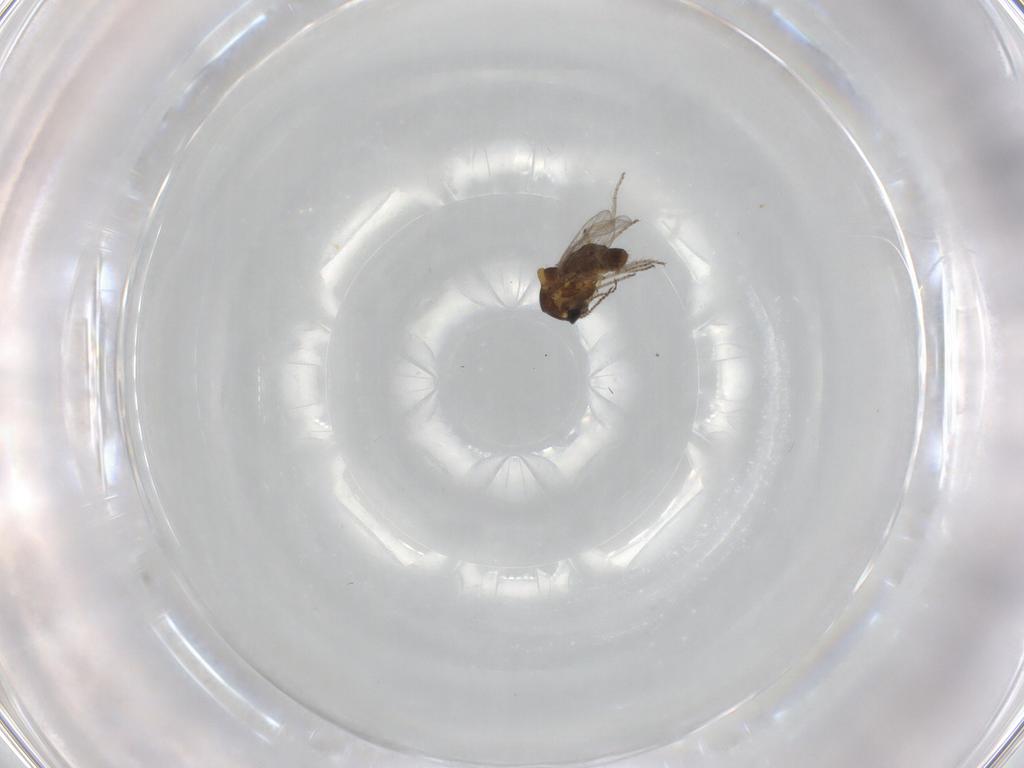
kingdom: Animalia
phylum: Arthropoda
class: Insecta
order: Diptera
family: Ceratopogonidae
